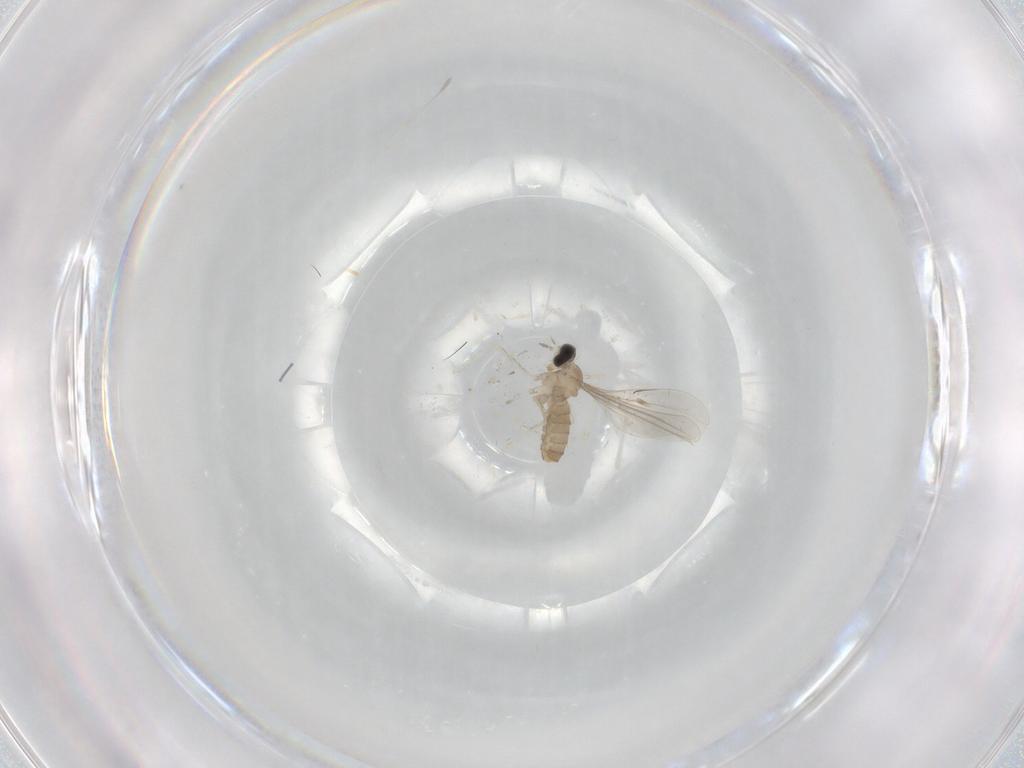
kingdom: Animalia
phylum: Arthropoda
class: Insecta
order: Diptera
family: Cecidomyiidae
